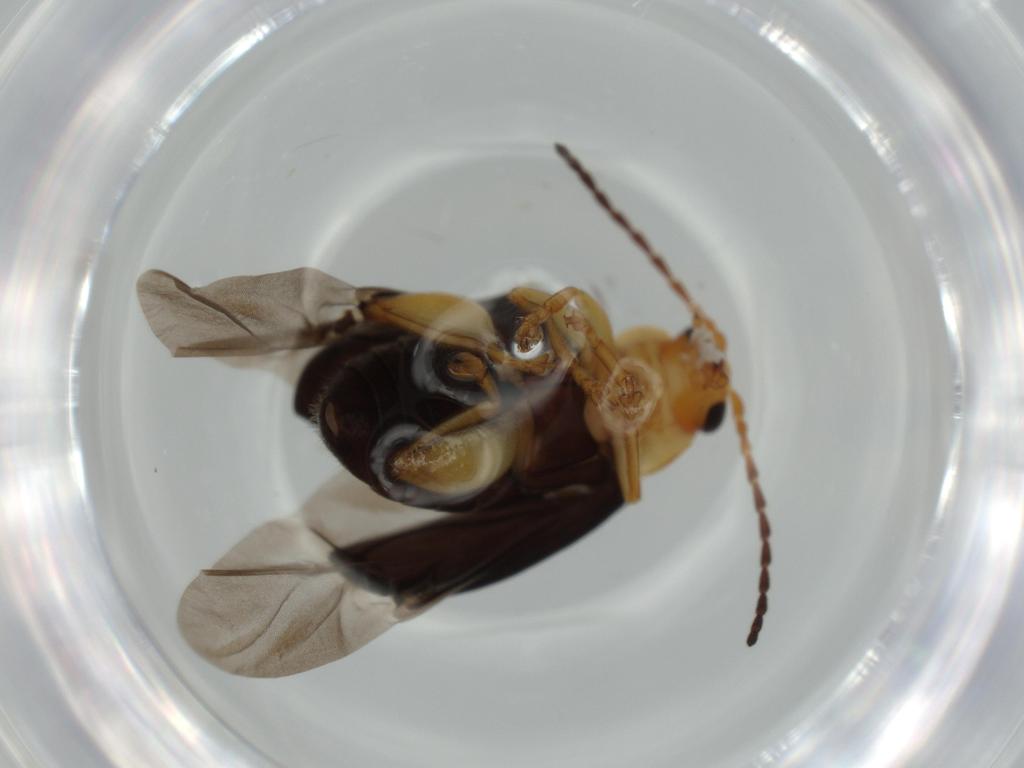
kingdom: Animalia
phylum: Arthropoda
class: Insecta
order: Coleoptera
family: Chrysomelidae
